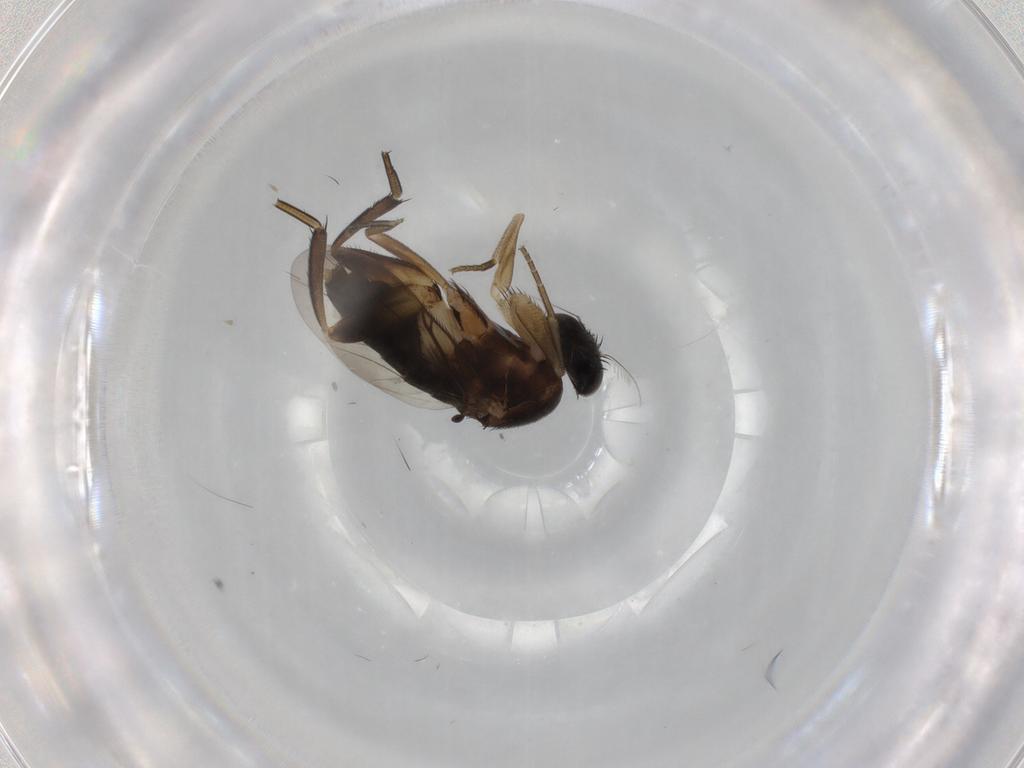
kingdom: Animalia
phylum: Arthropoda
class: Insecta
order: Diptera
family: Phoridae
